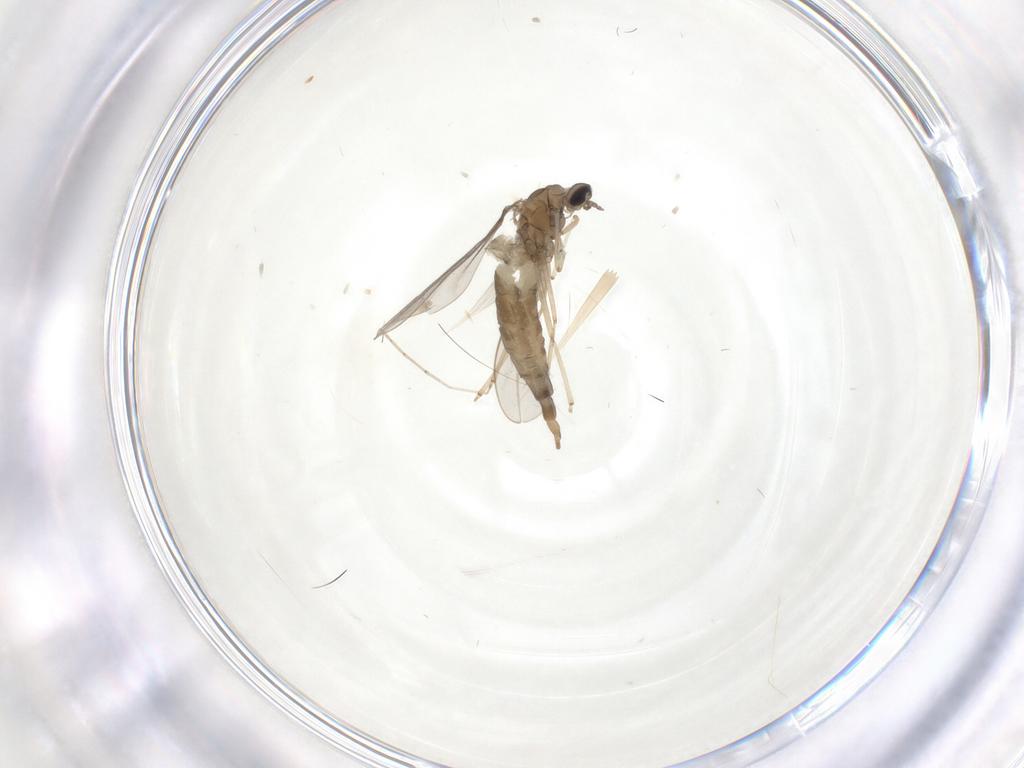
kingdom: Animalia
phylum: Arthropoda
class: Insecta
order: Diptera
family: Cecidomyiidae
